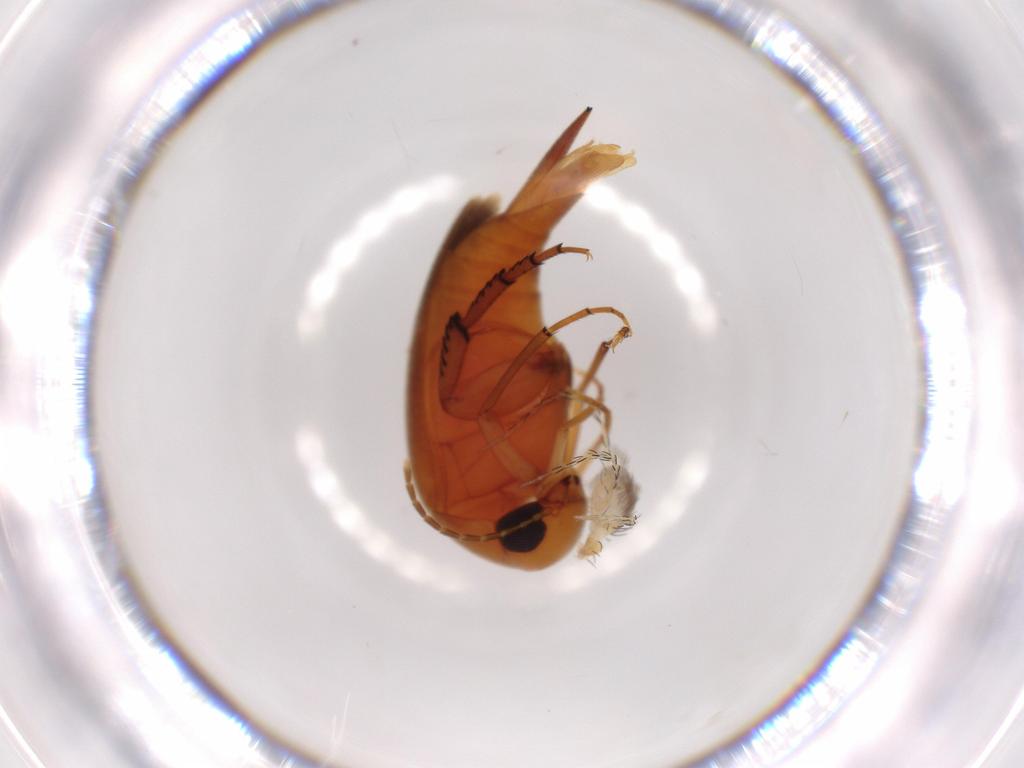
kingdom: Animalia
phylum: Arthropoda
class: Arachnida
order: Trombidiformes
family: Erythraeidae
